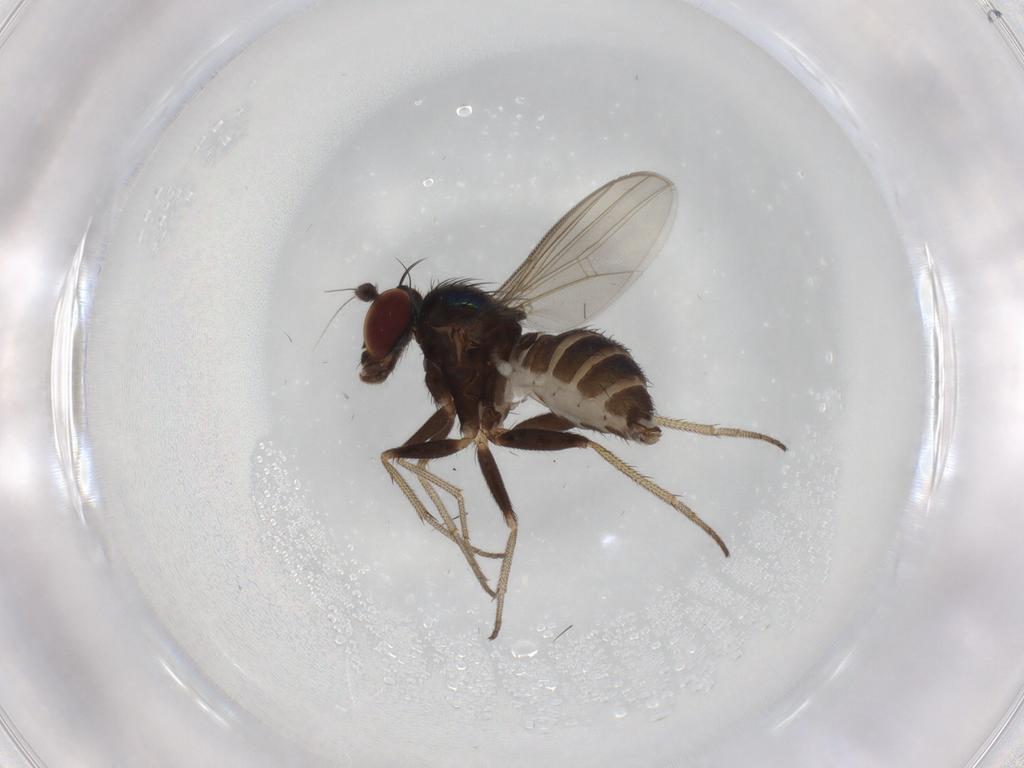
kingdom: Animalia
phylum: Arthropoda
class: Insecta
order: Diptera
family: Dolichopodidae
